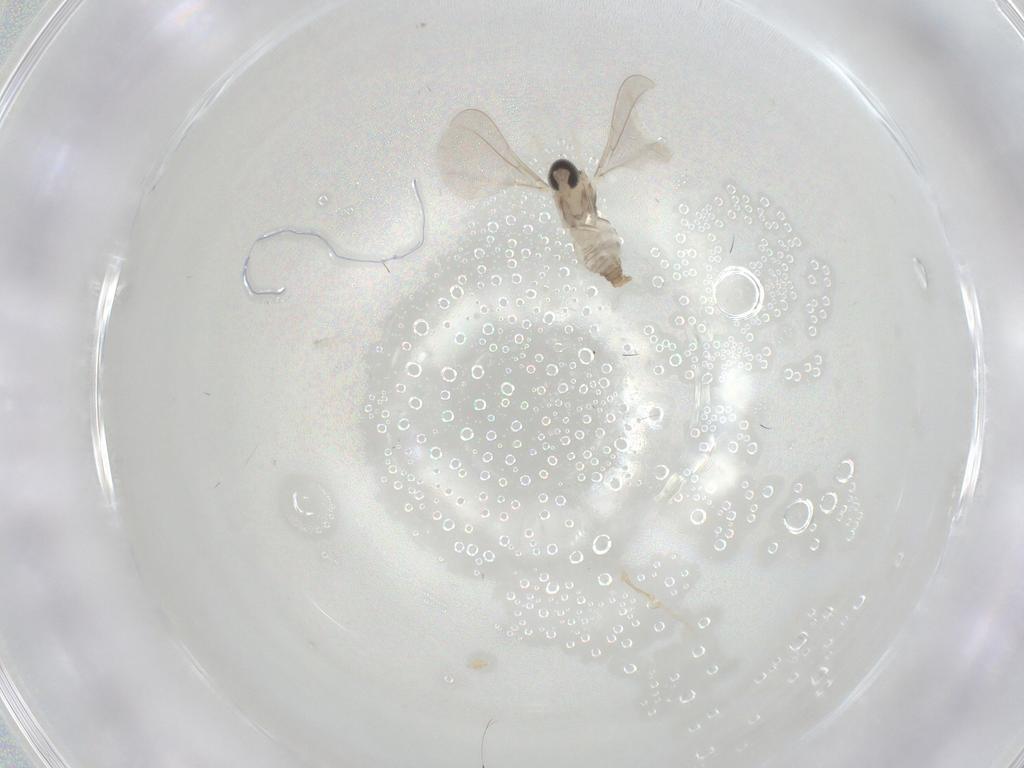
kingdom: Animalia
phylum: Arthropoda
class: Insecta
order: Diptera
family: Cecidomyiidae
